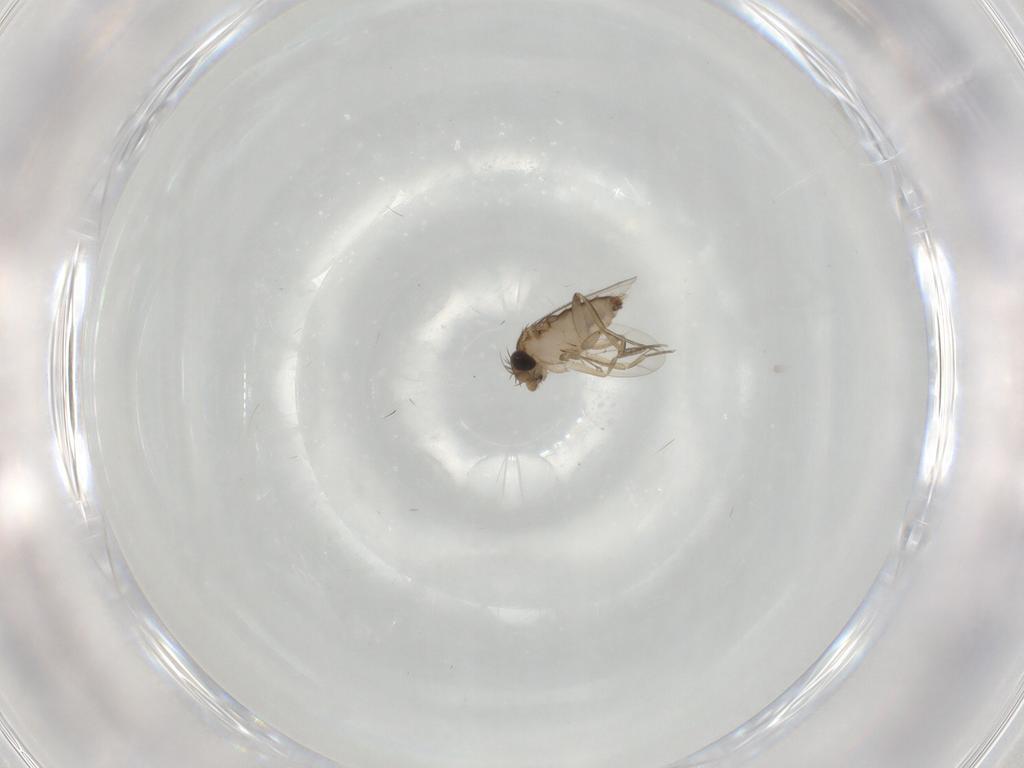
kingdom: Animalia
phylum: Arthropoda
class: Insecta
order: Diptera
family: Phoridae
